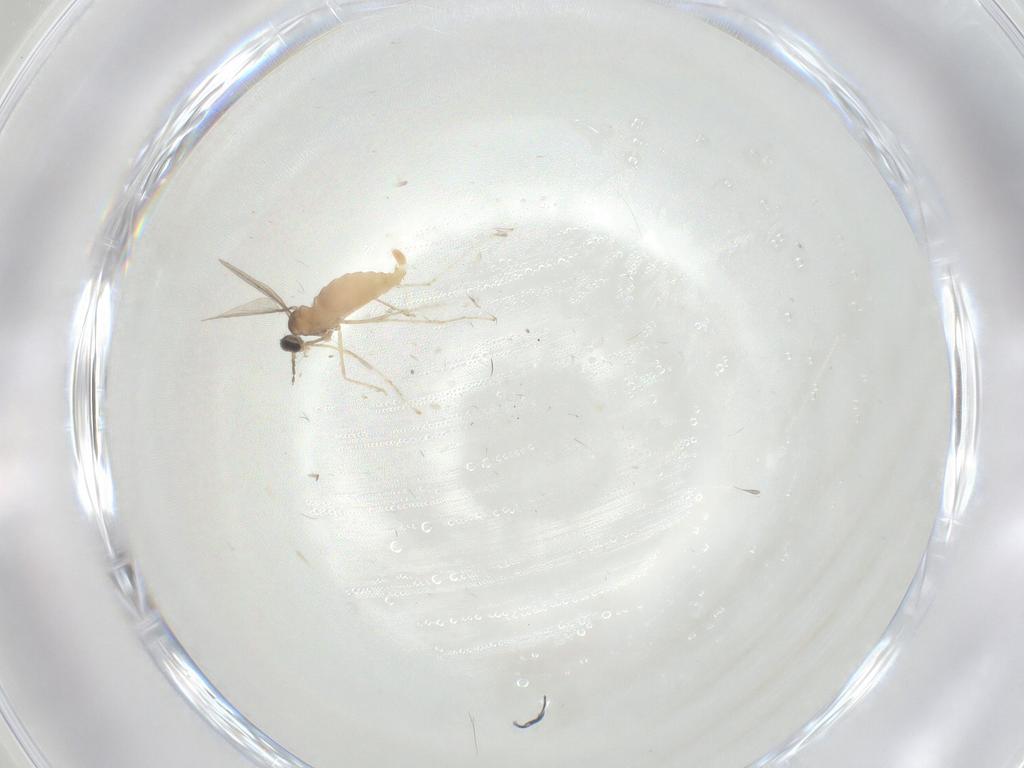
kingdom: Animalia
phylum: Arthropoda
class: Insecta
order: Diptera
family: Cecidomyiidae
